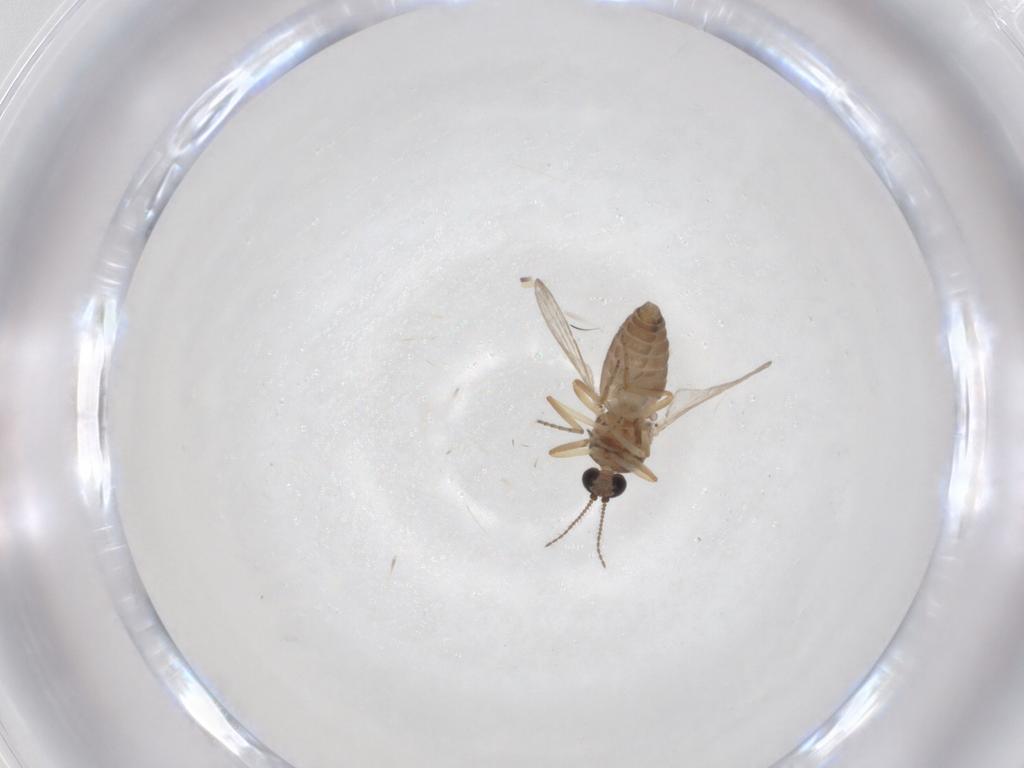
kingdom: Animalia
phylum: Arthropoda
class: Insecta
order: Diptera
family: Ceratopogonidae
